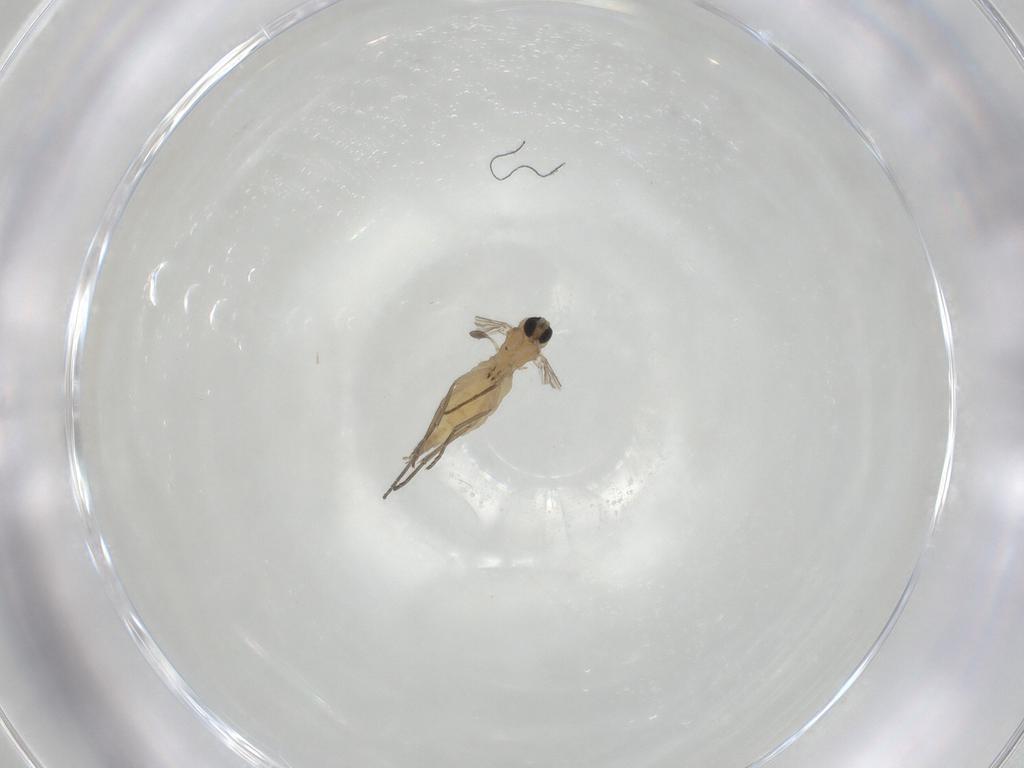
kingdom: Animalia
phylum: Arthropoda
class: Insecta
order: Diptera
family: Sciaridae
